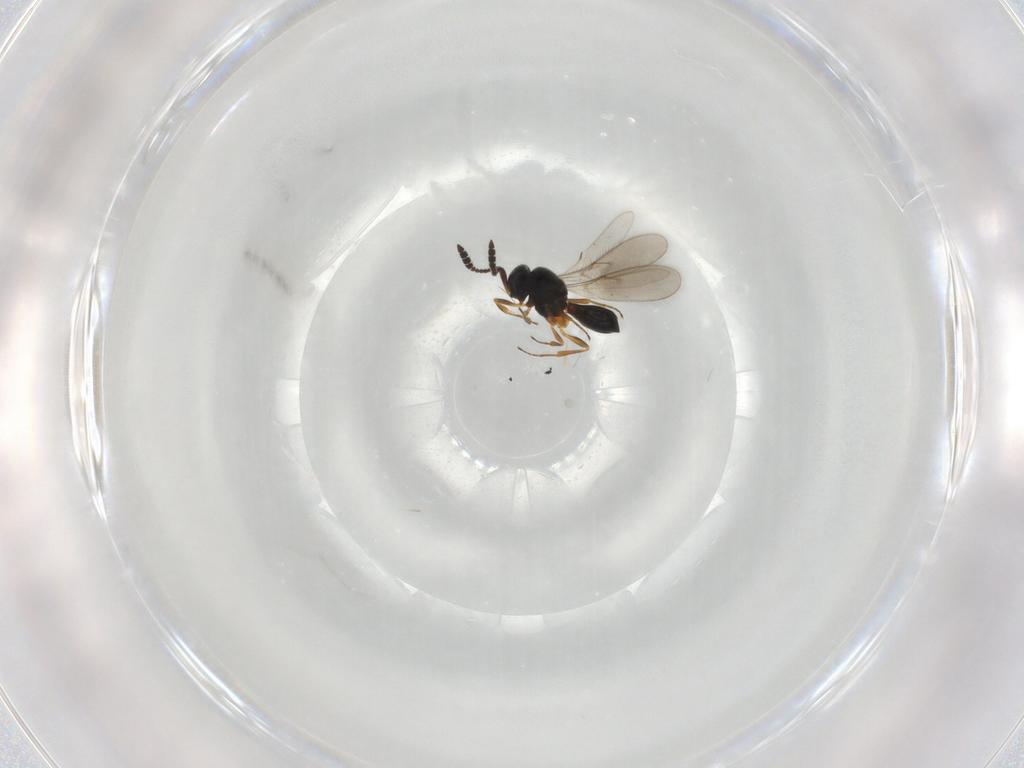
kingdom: Animalia
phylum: Arthropoda
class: Insecta
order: Hymenoptera
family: Scelionidae
